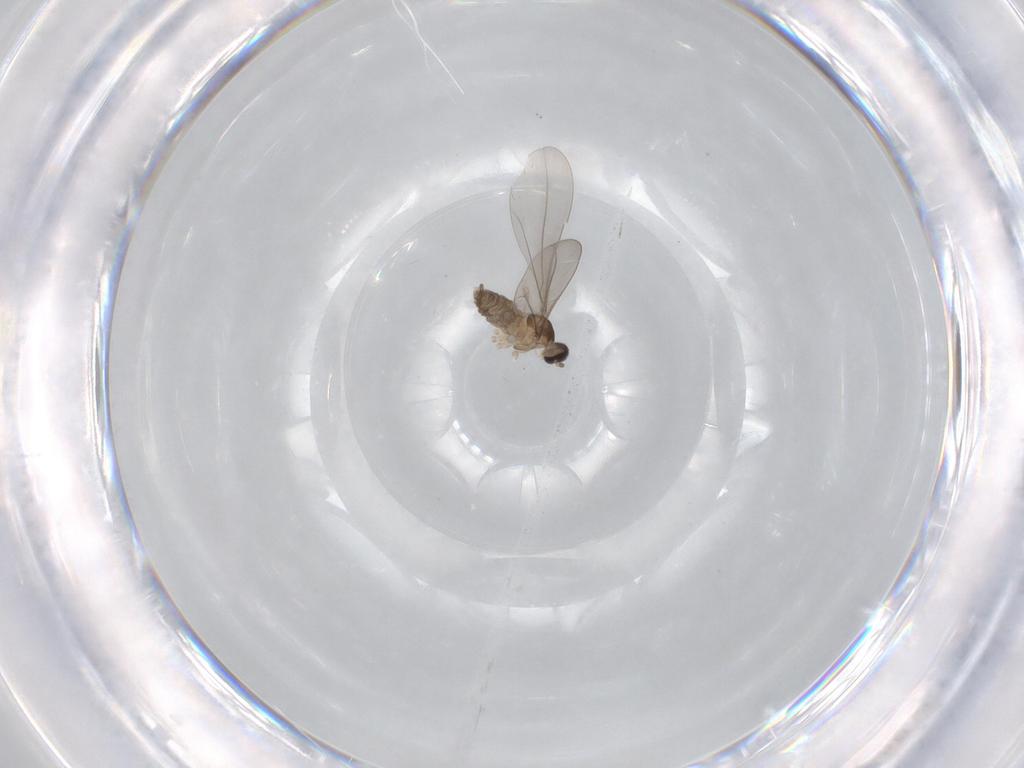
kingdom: Animalia
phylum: Arthropoda
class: Insecta
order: Diptera
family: Cecidomyiidae
